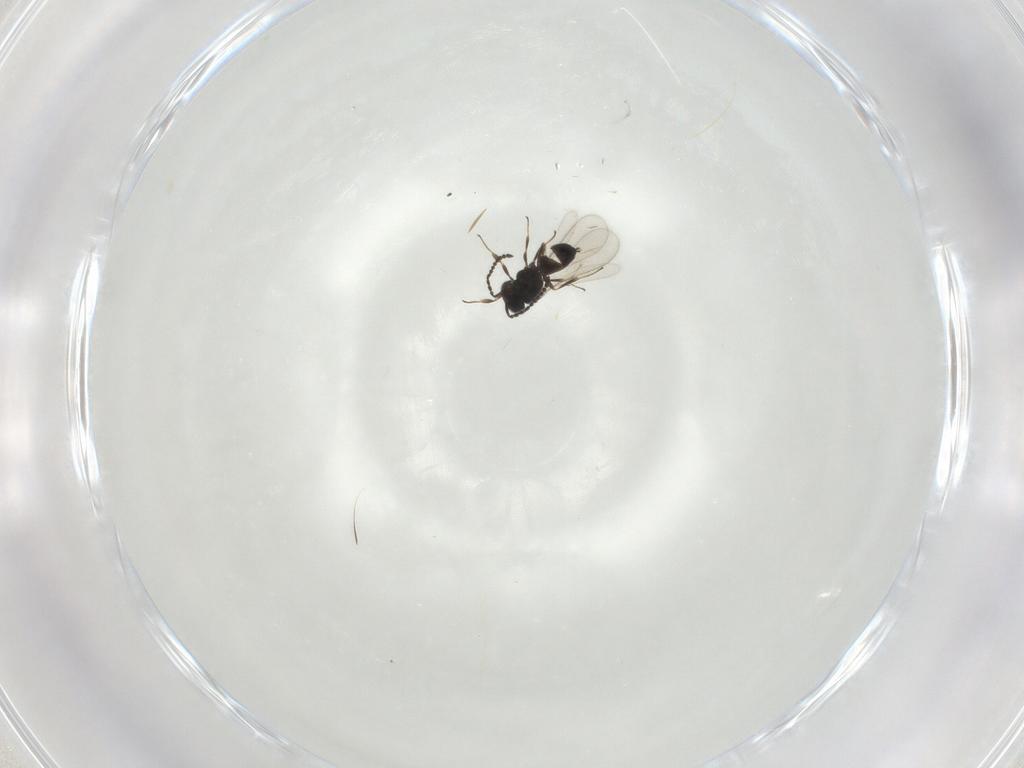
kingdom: Animalia
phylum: Arthropoda
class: Insecta
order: Hymenoptera
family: Scelionidae
